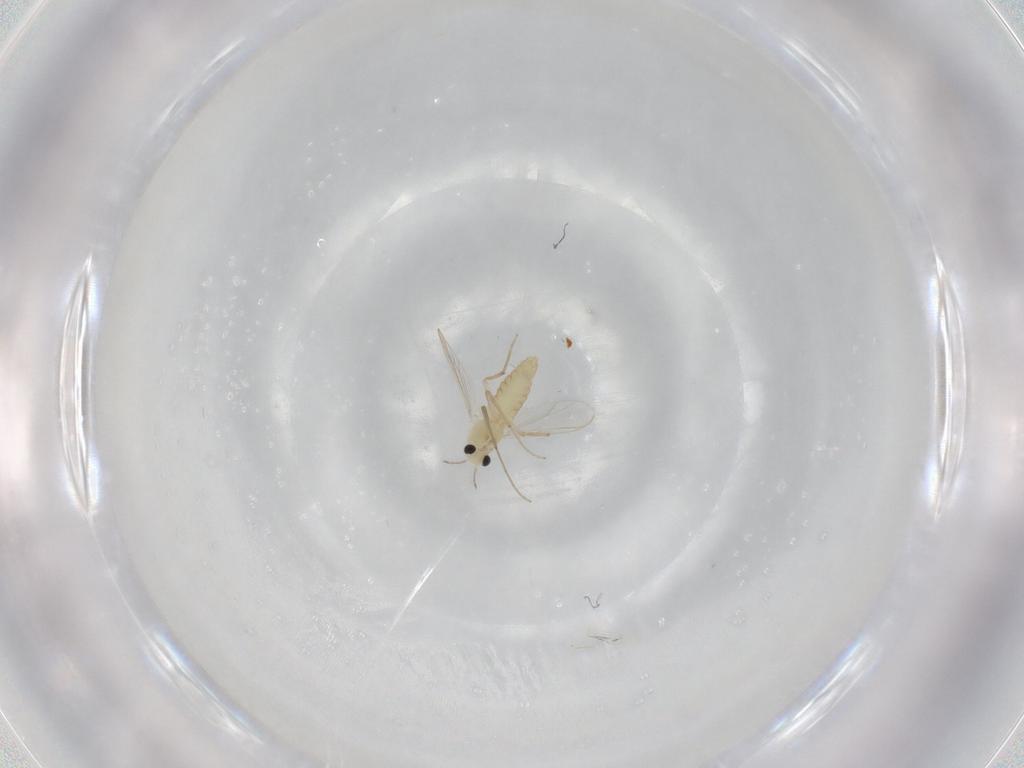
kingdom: Animalia
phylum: Arthropoda
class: Insecta
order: Diptera
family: Chironomidae
